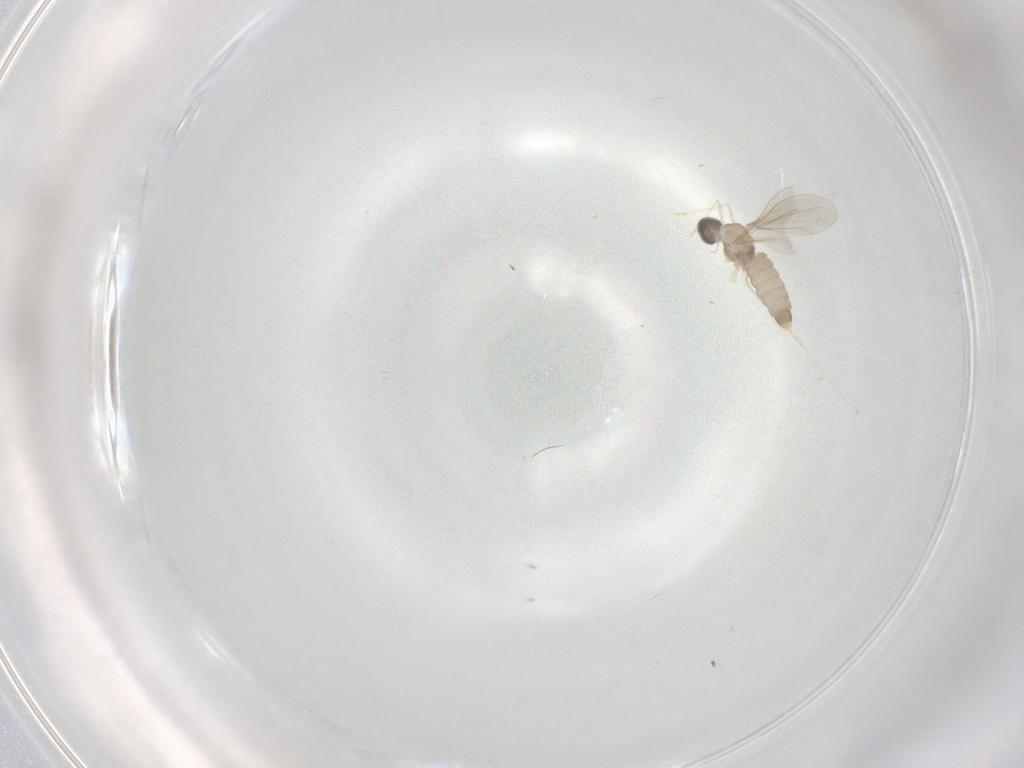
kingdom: Animalia
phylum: Arthropoda
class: Insecta
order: Diptera
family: Cecidomyiidae
